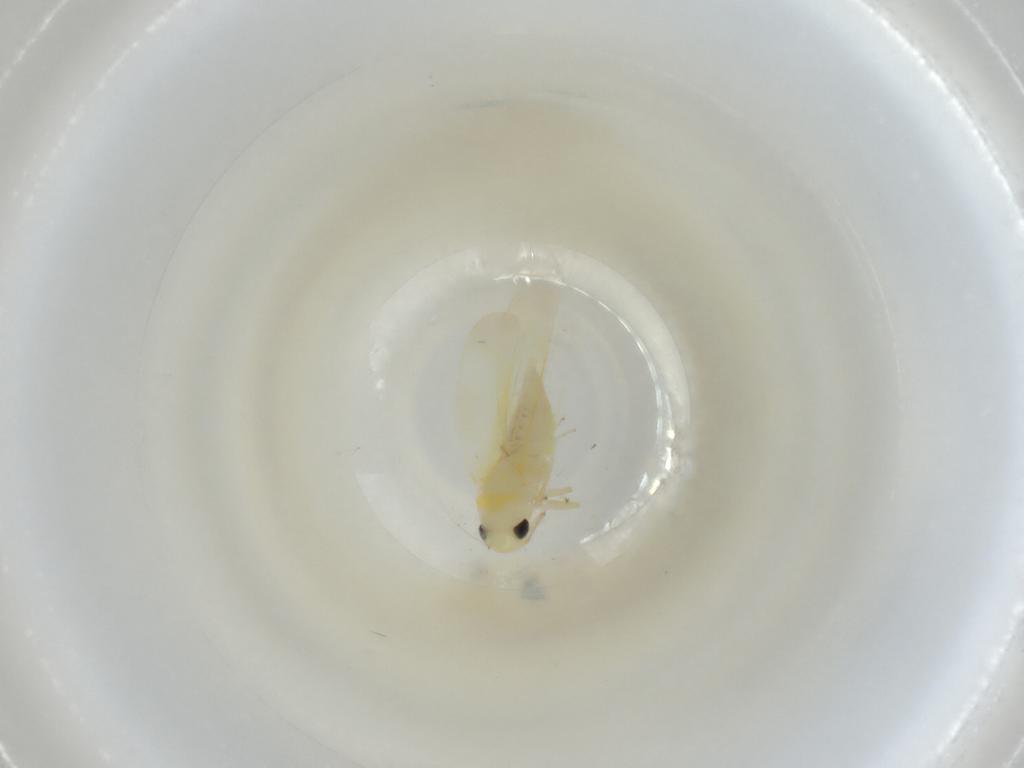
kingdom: Animalia
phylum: Arthropoda
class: Insecta
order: Hemiptera
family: Cicadellidae
